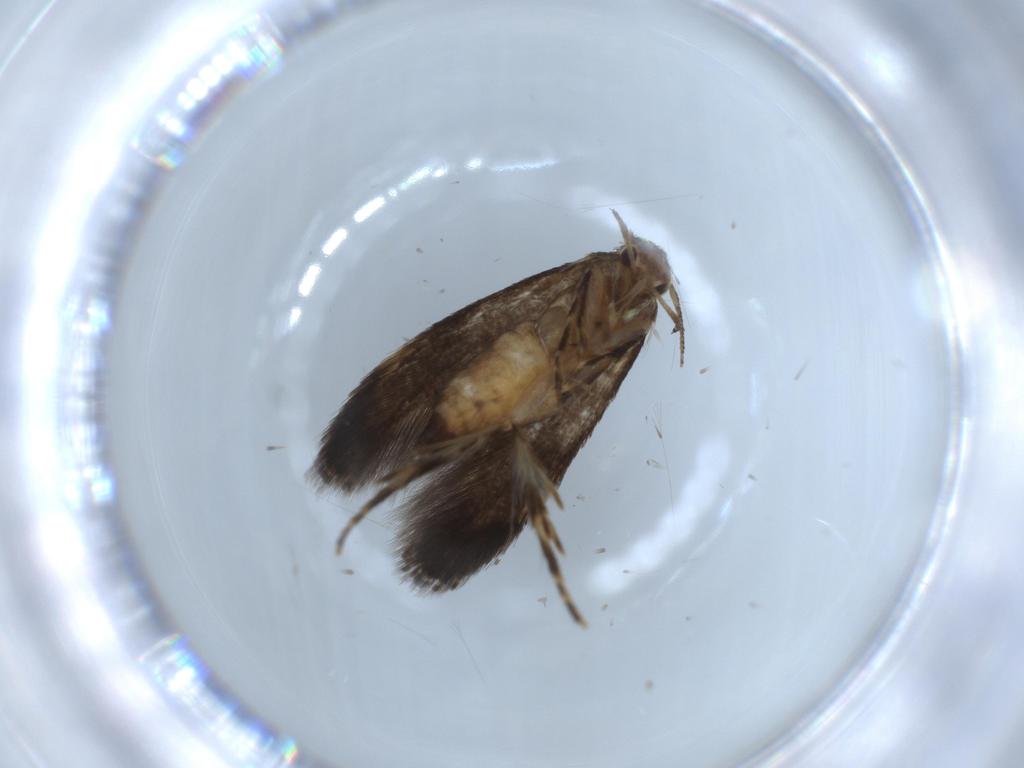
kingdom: Animalia
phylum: Arthropoda
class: Insecta
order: Lepidoptera
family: Gelechiidae
